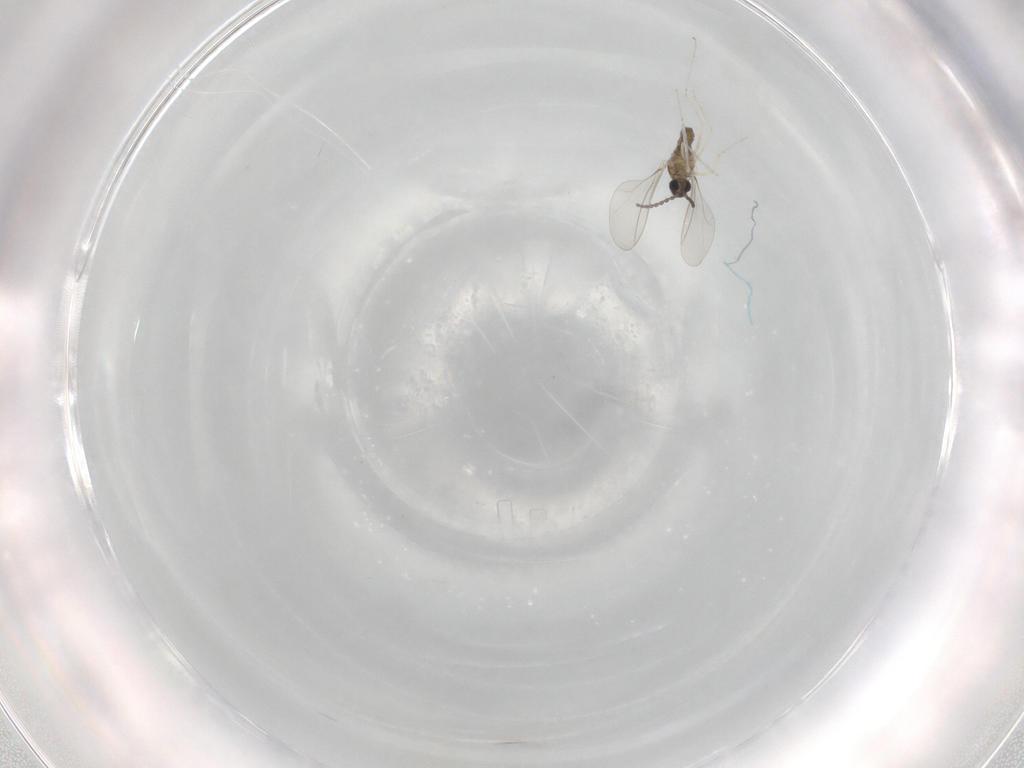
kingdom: Animalia
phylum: Arthropoda
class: Insecta
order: Diptera
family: Cecidomyiidae
